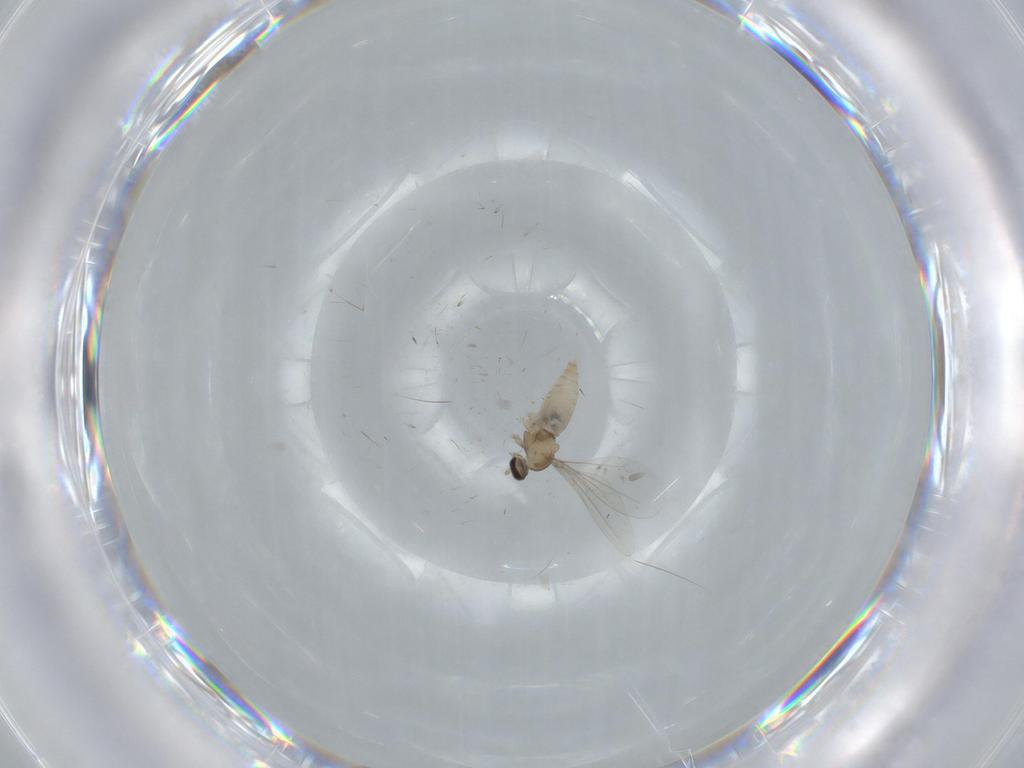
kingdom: Animalia
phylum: Arthropoda
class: Insecta
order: Diptera
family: Cecidomyiidae
